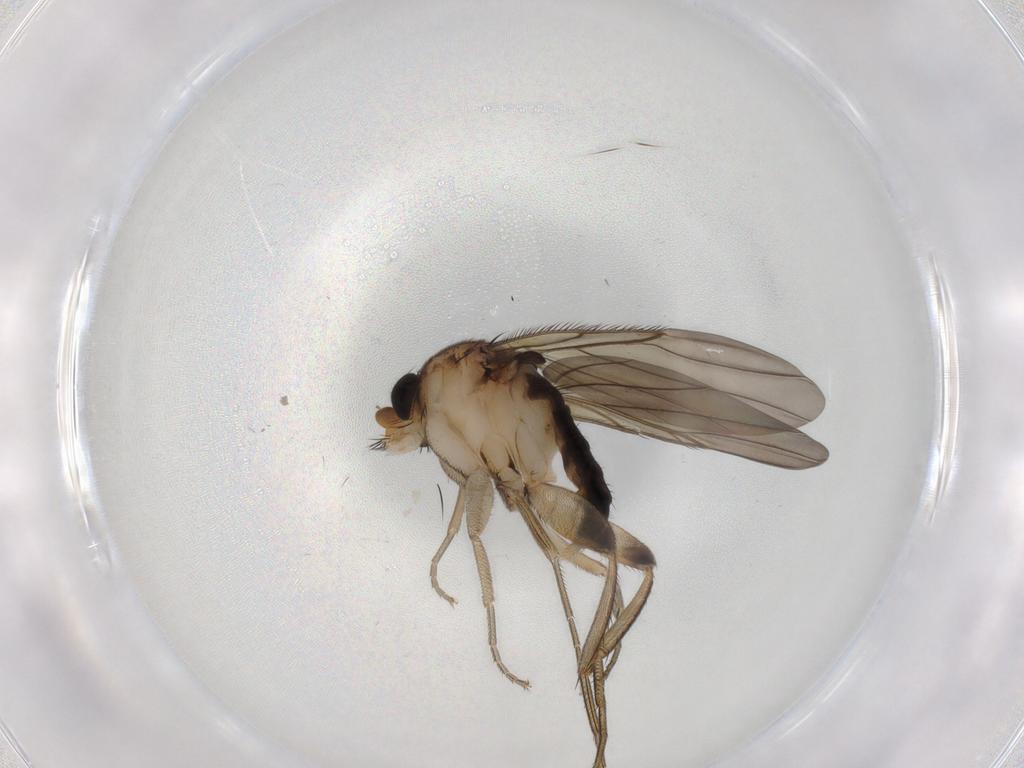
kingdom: Animalia
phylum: Arthropoda
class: Insecta
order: Diptera
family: Phoridae
